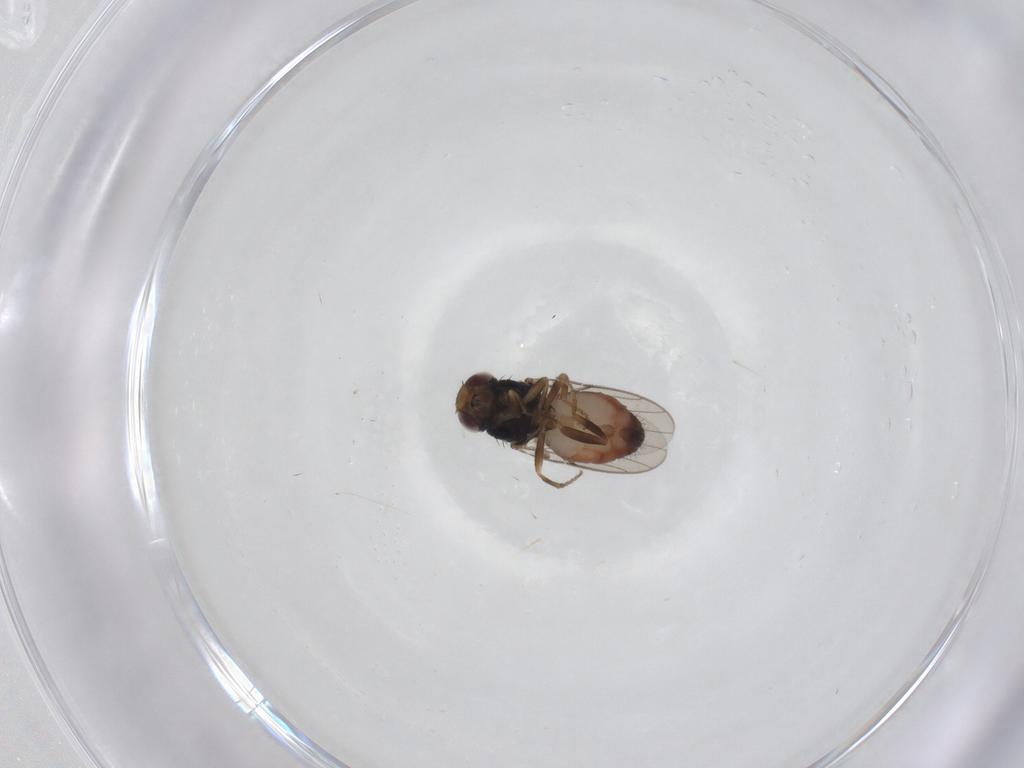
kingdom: Animalia
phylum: Arthropoda
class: Insecta
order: Diptera
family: Chloropidae
